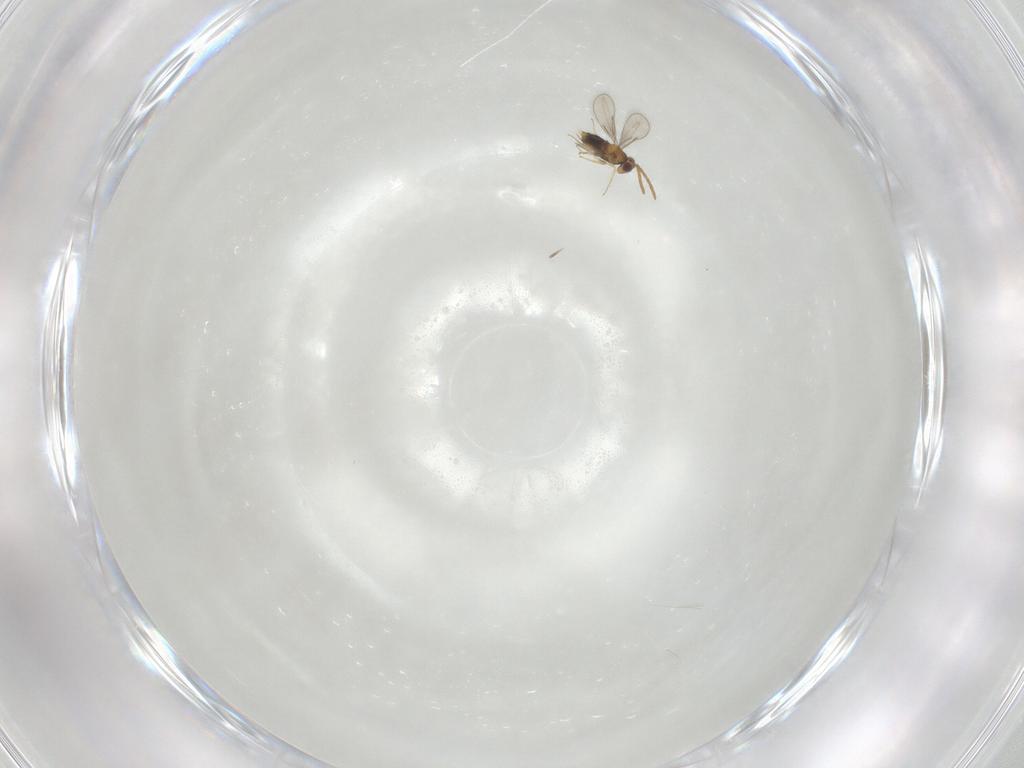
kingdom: Animalia
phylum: Arthropoda
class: Insecta
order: Hymenoptera
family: Aphelinidae
